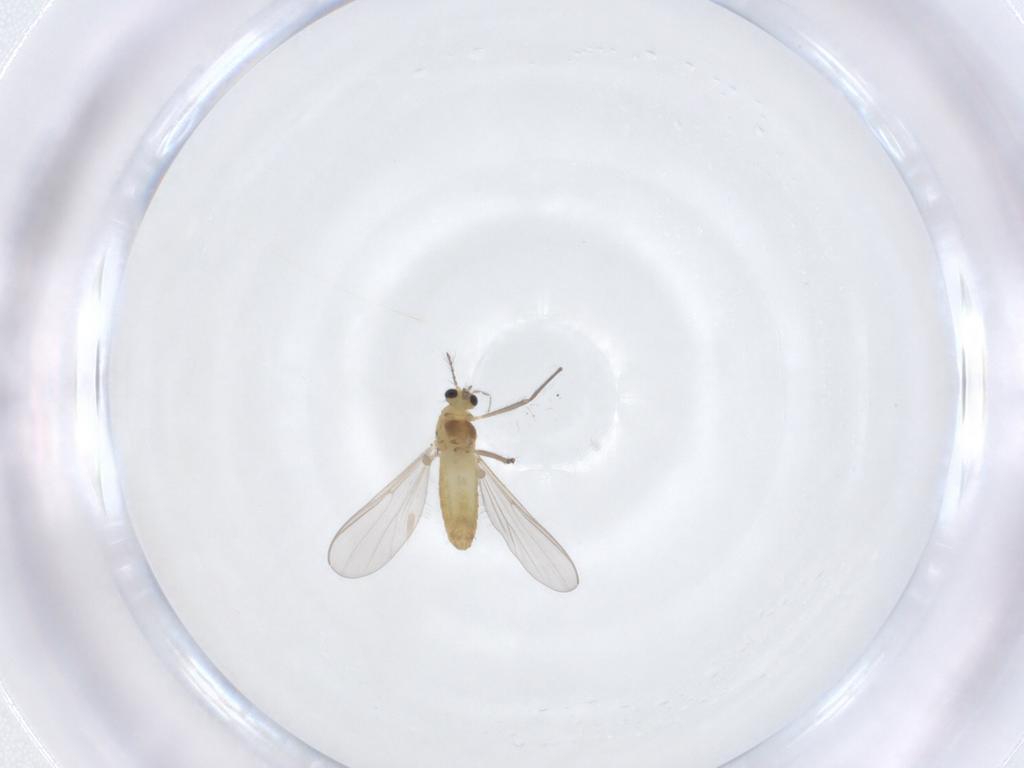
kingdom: Animalia
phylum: Arthropoda
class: Insecta
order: Diptera
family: Chironomidae
